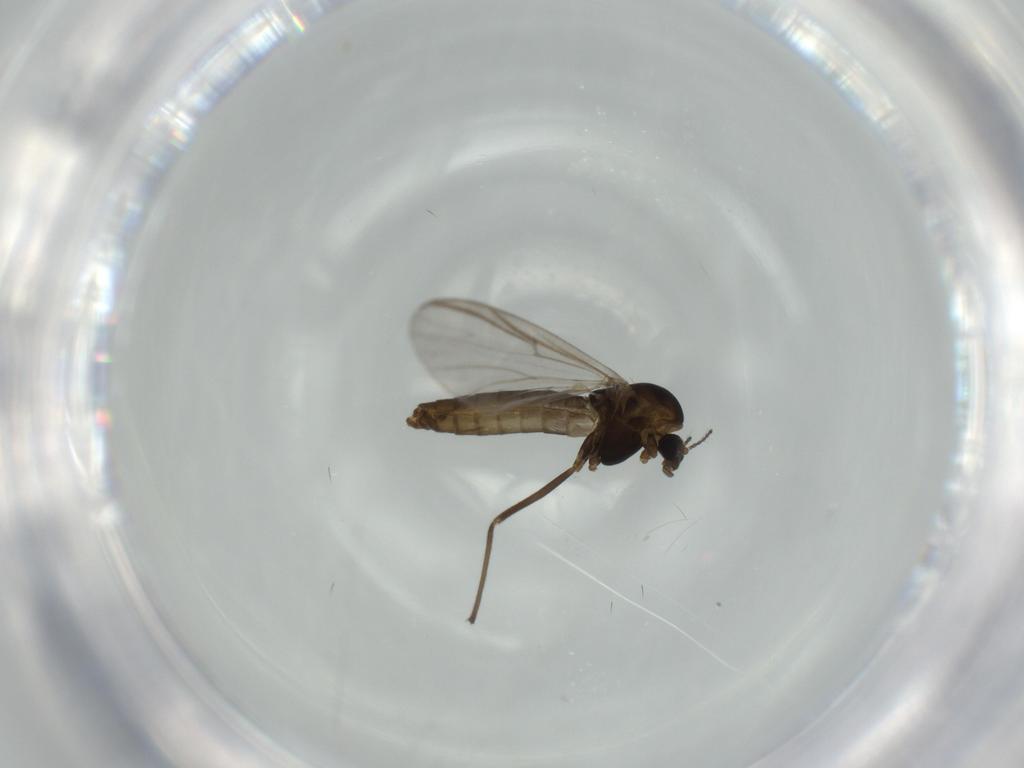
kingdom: Animalia
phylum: Arthropoda
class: Insecta
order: Diptera
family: Chironomidae
